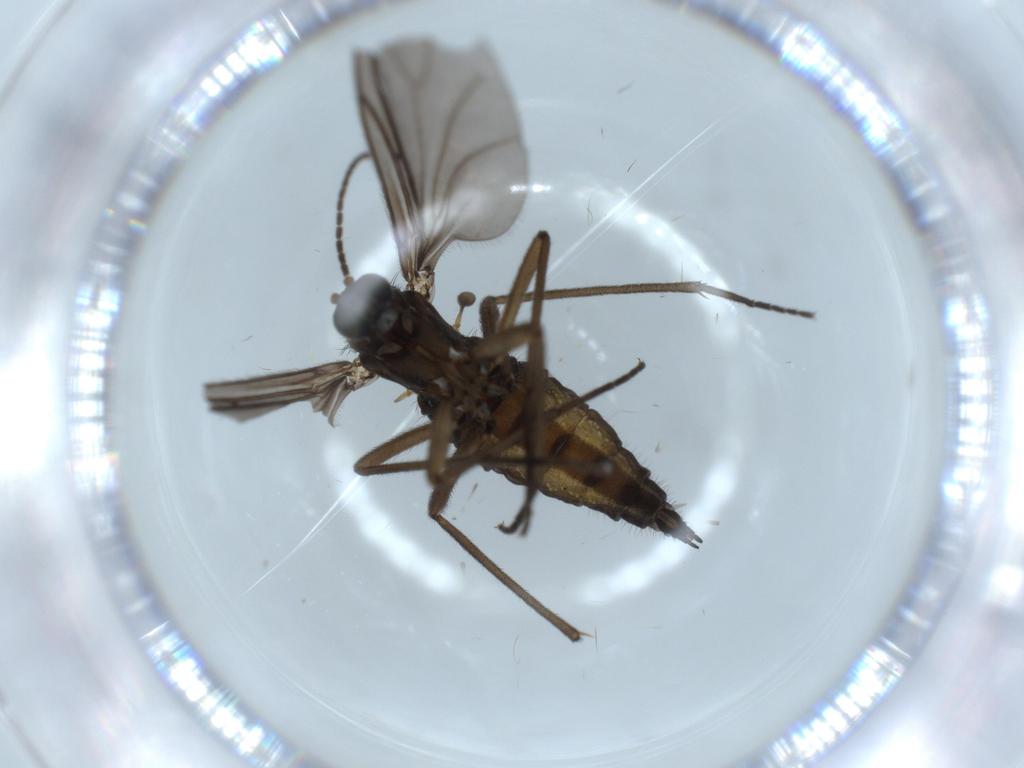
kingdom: Animalia
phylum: Arthropoda
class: Insecta
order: Diptera
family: Sciaridae
